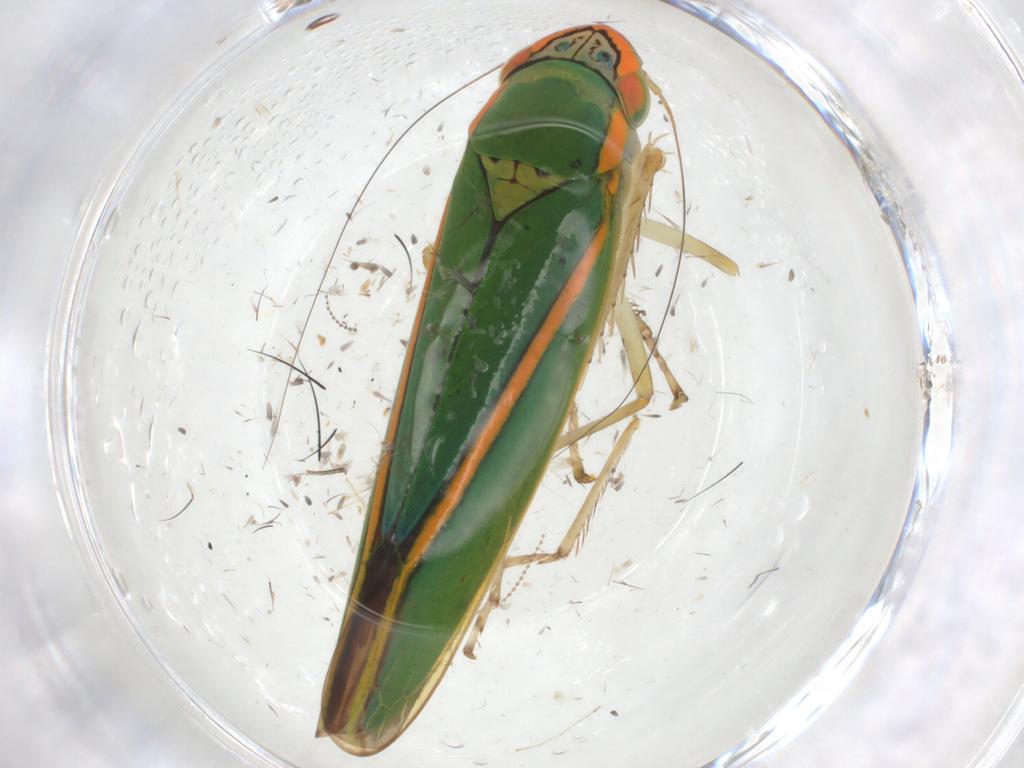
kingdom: Animalia
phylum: Arthropoda
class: Insecta
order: Hemiptera
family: Cicadellidae
